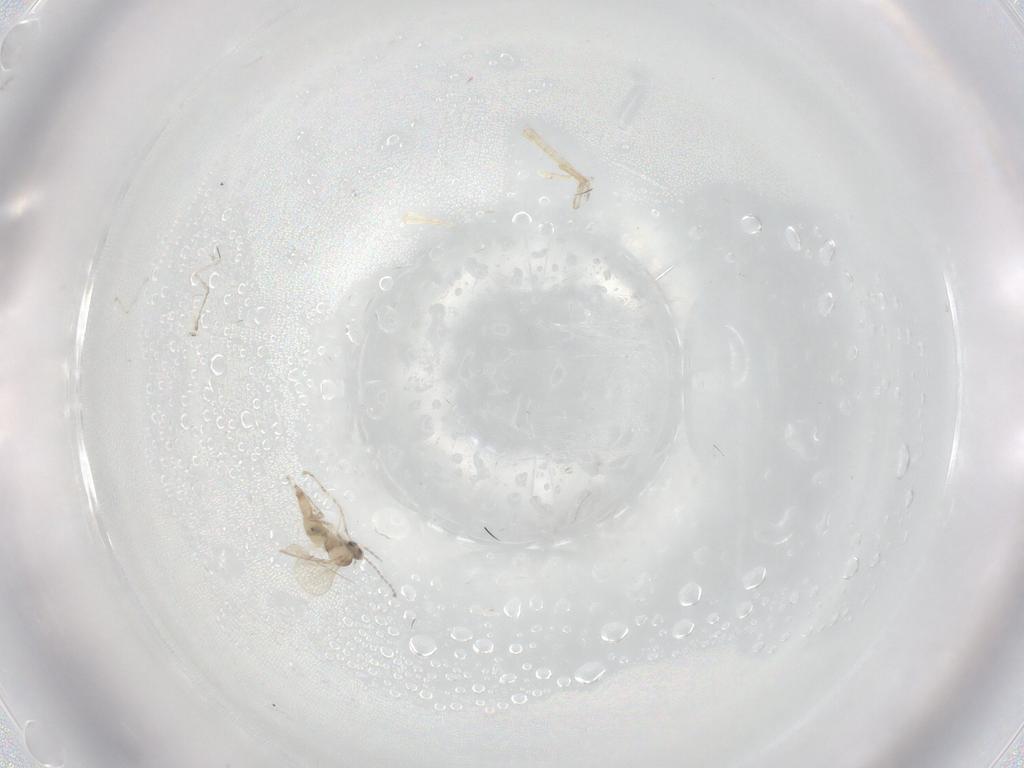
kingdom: Animalia
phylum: Arthropoda
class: Insecta
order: Diptera
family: Cecidomyiidae
